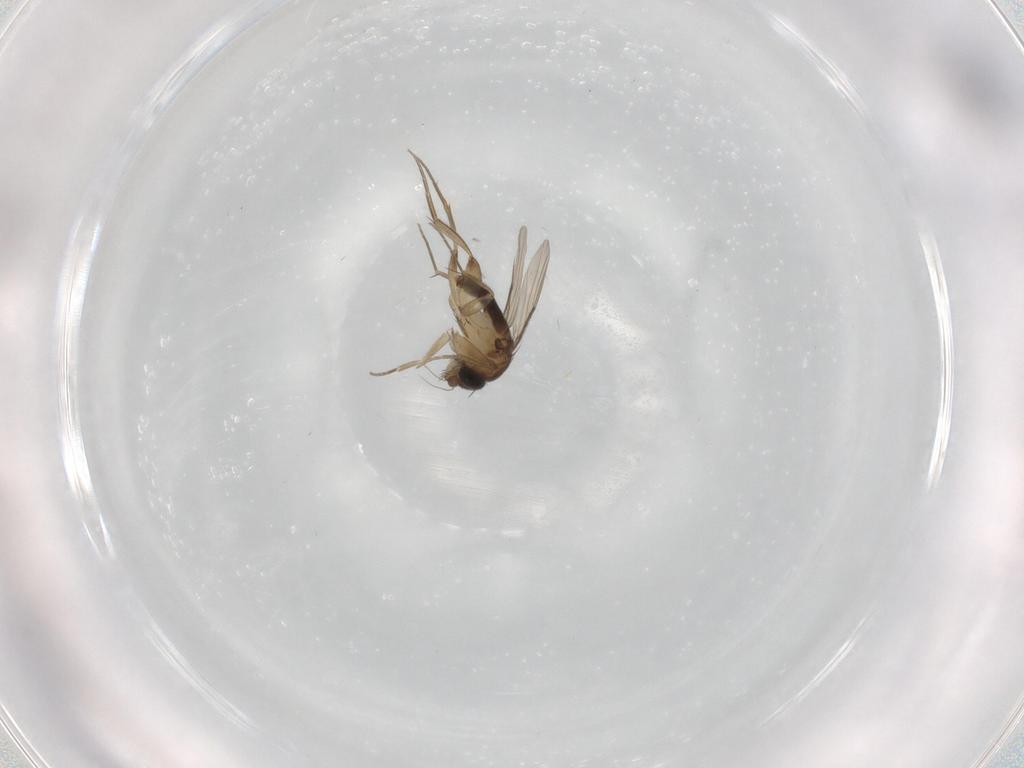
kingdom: Animalia
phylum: Arthropoda
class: Insecta
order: Diptera
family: Phoridae
